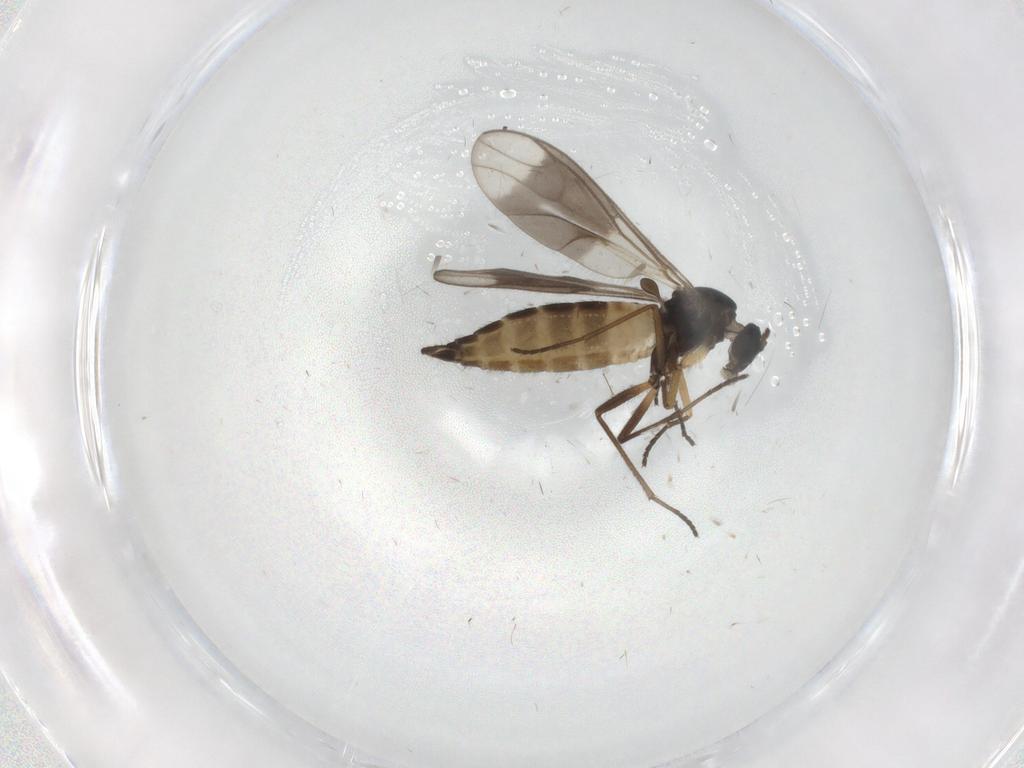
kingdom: Animalia
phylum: Arthropoda
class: Insecta
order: Diptera
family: Sciaridae
